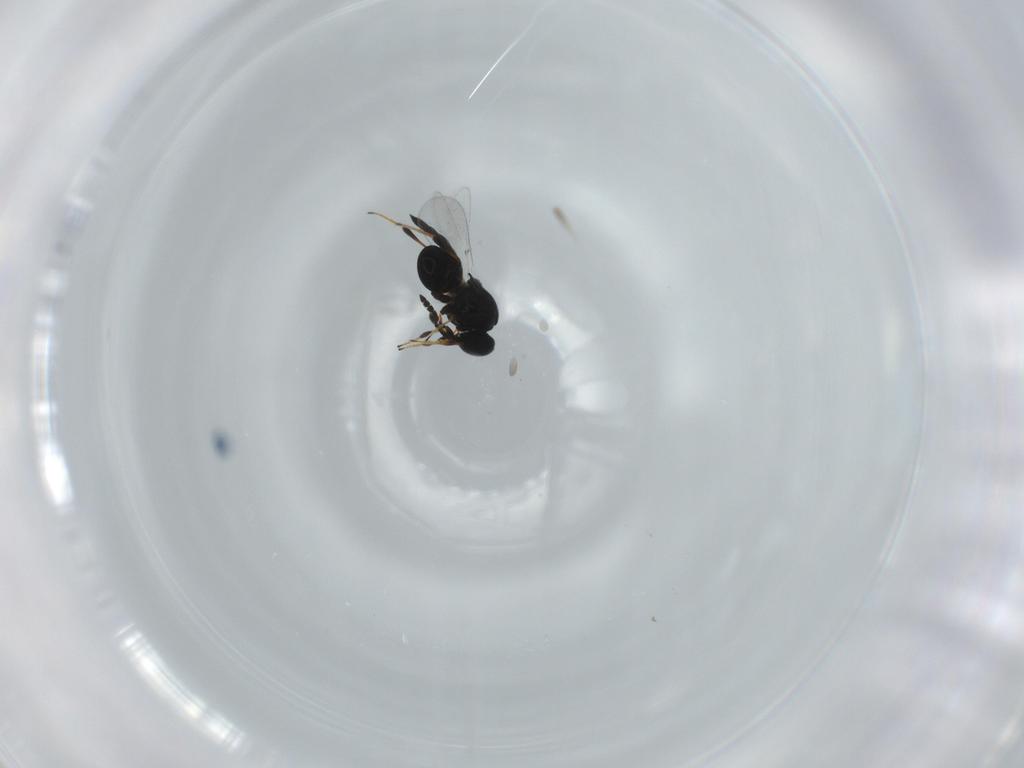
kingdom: Animalia
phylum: Arthropoda
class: Insecta
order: Hymenoptera
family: Platygastridae
